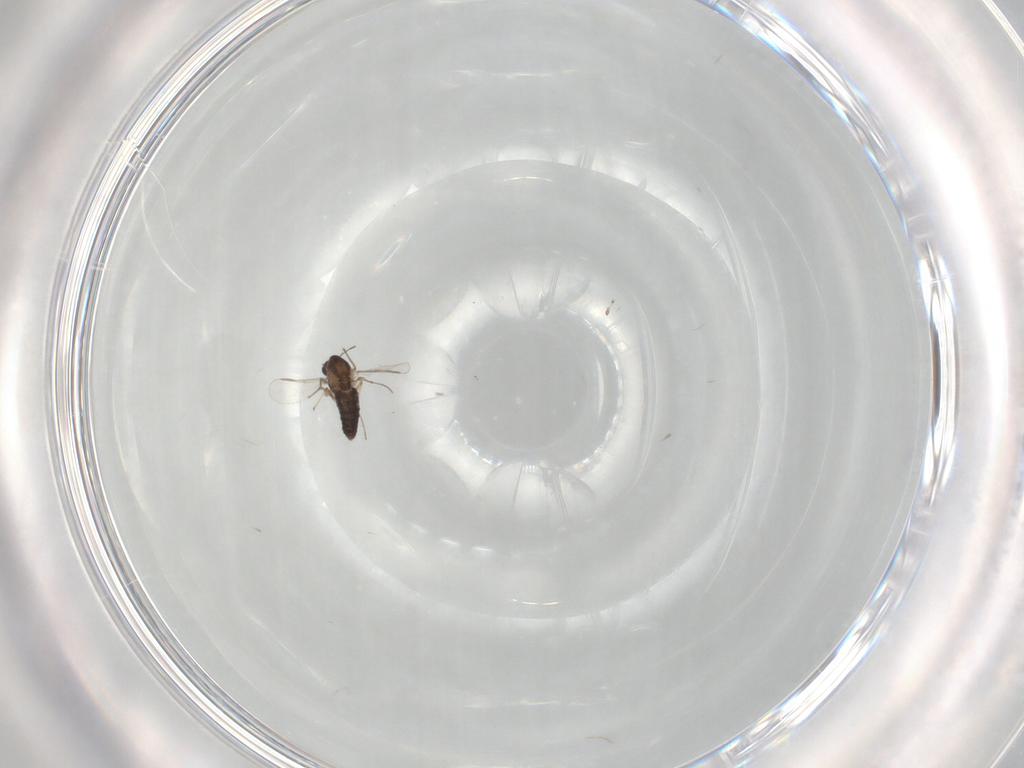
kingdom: Animalia
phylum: Arthropoda
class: Insecta
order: Diptera
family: Chironomidae
